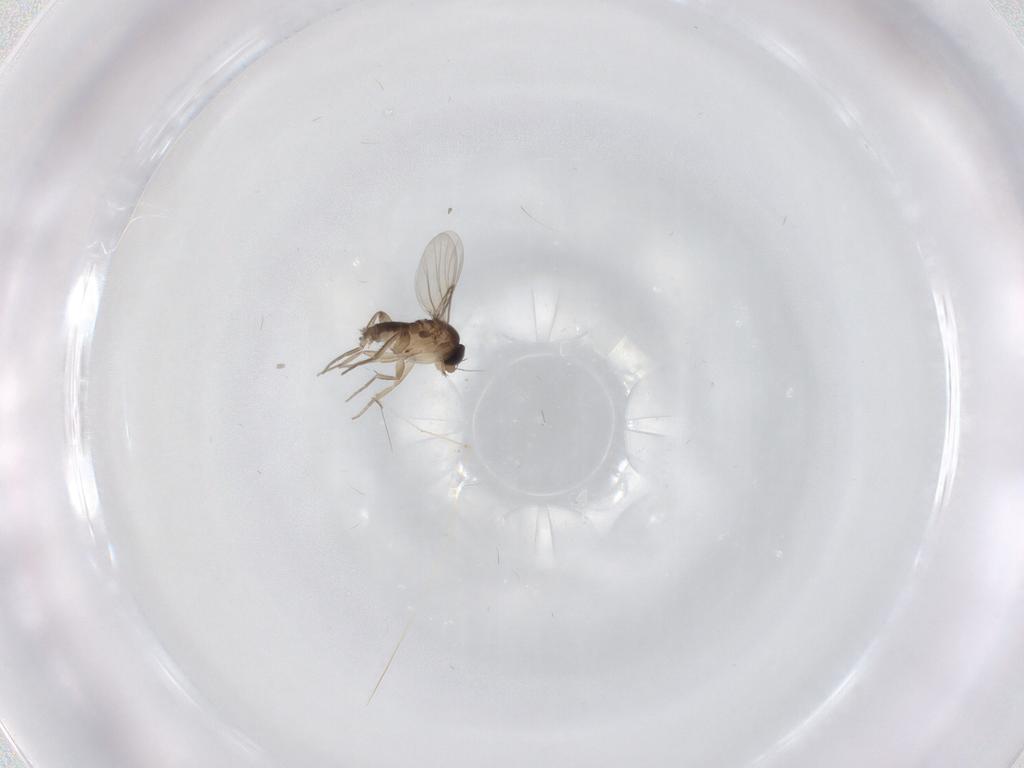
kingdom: Animalia
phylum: Arthropoda
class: Insecta
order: Diptera
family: Phoridae
